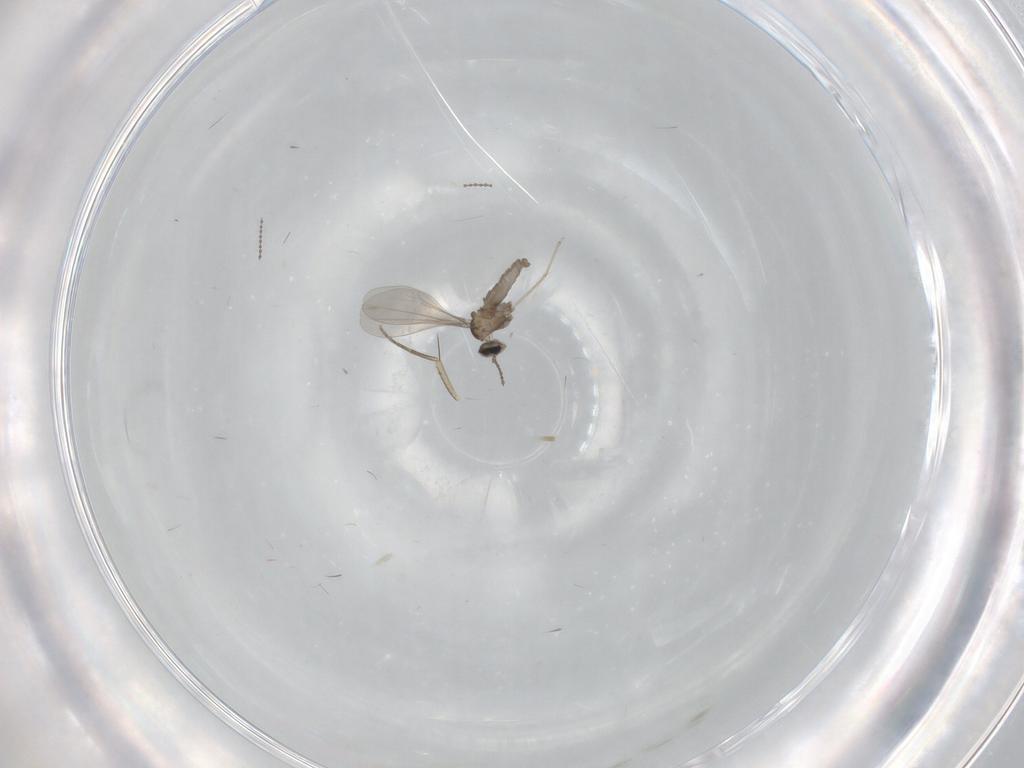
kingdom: Animalia
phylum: Arthropoda
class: Insecta
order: Diptera
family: Cecidomyiidae
